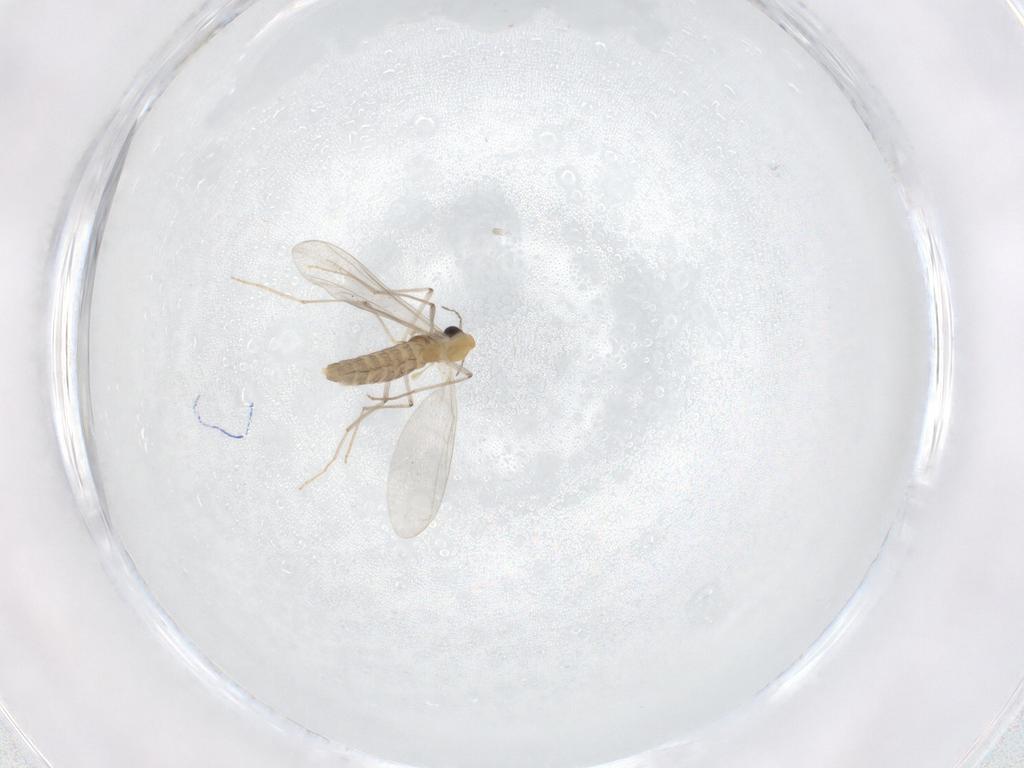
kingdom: Animalia
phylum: Arthropoda
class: Insecta
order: Diptera
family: Chironomidae
